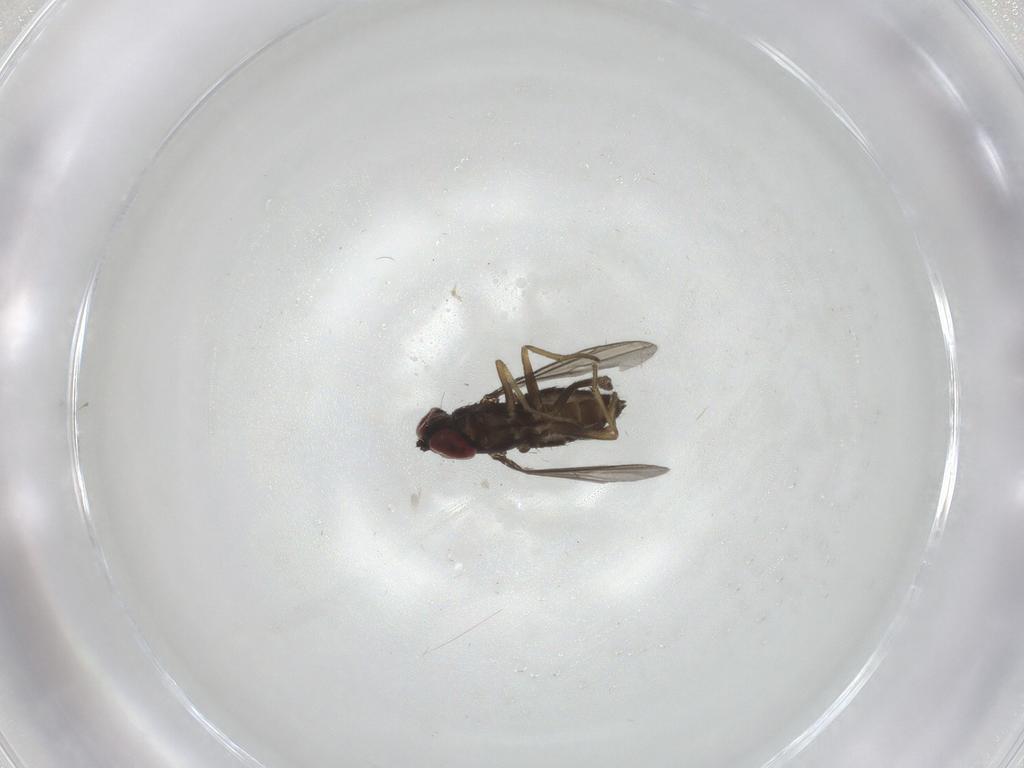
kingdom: Animalia
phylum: Arthropoda
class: Insecta
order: Diptera
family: Dolichopodidae
